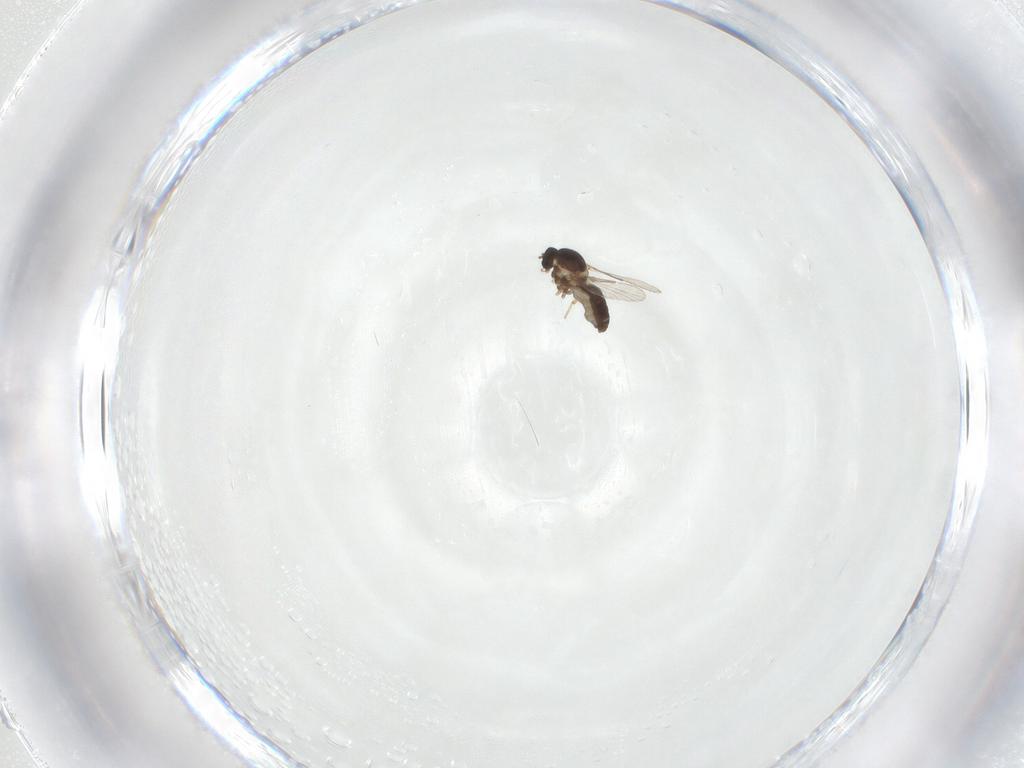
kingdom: Animalia
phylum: Arthropoda
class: Insecta
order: Diptera
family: Ceratopogonidae
